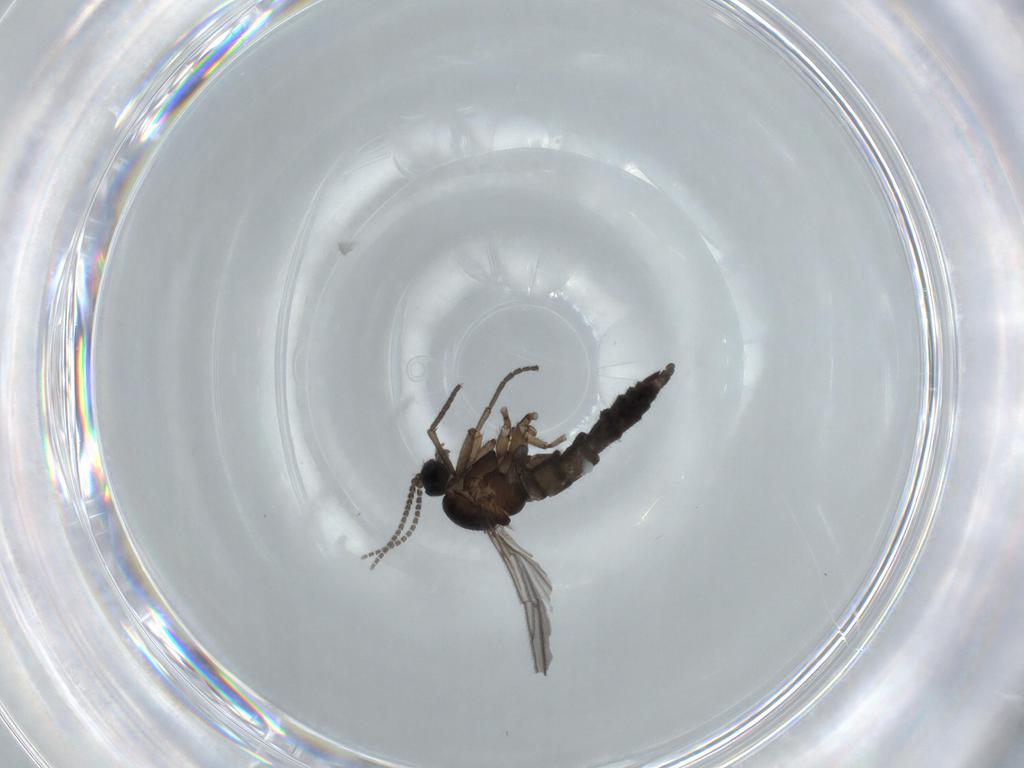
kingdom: Animalia
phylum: Arthropoda
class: Insecta
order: Diptera
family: Sciaridae
